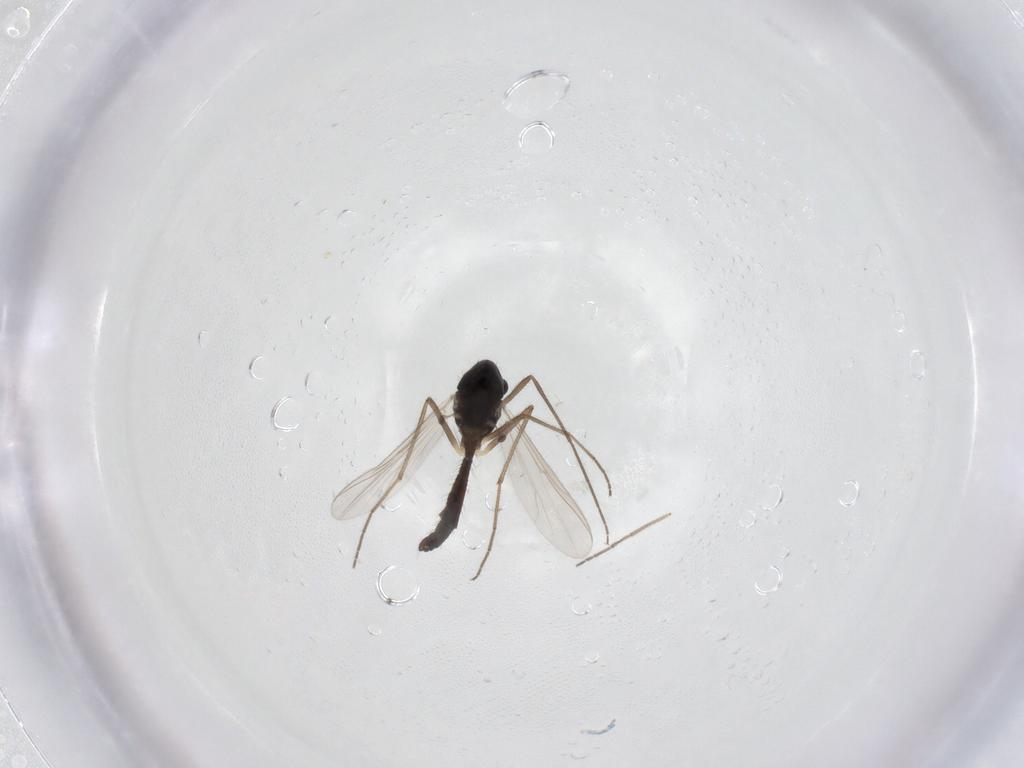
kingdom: Animalia
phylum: Arthropoda
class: Insecta
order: Diptera
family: Chironomidae
